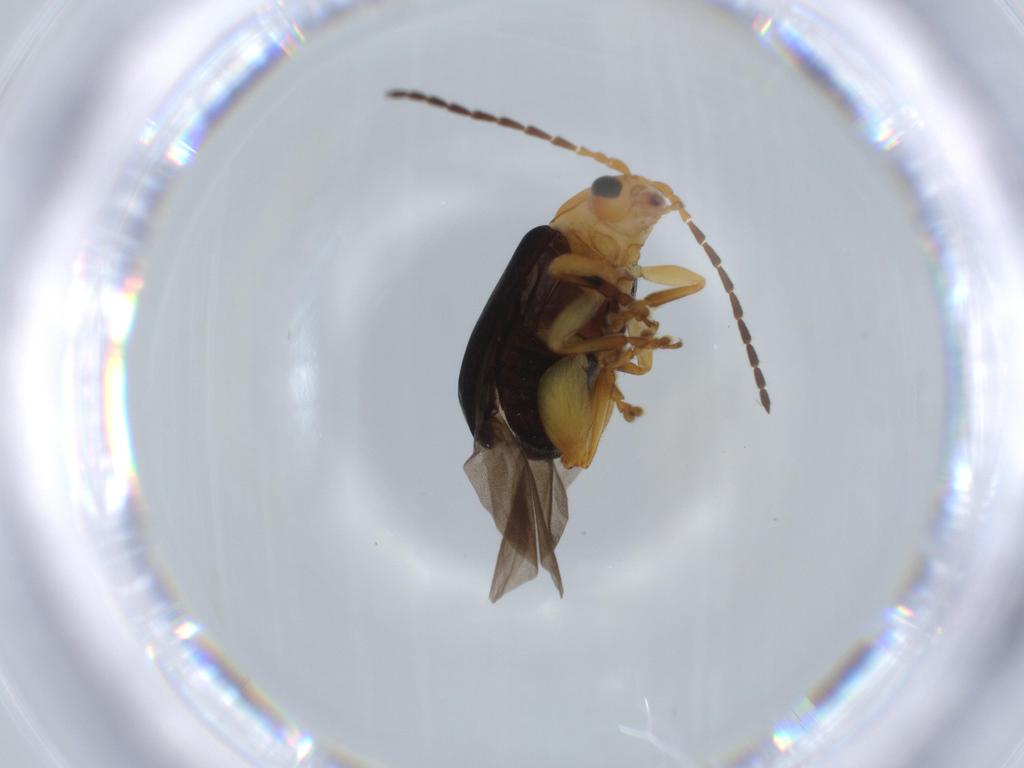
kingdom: Animalia
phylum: Arthropoda
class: Insecta
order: Coleoptera
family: Chrysomelidae
